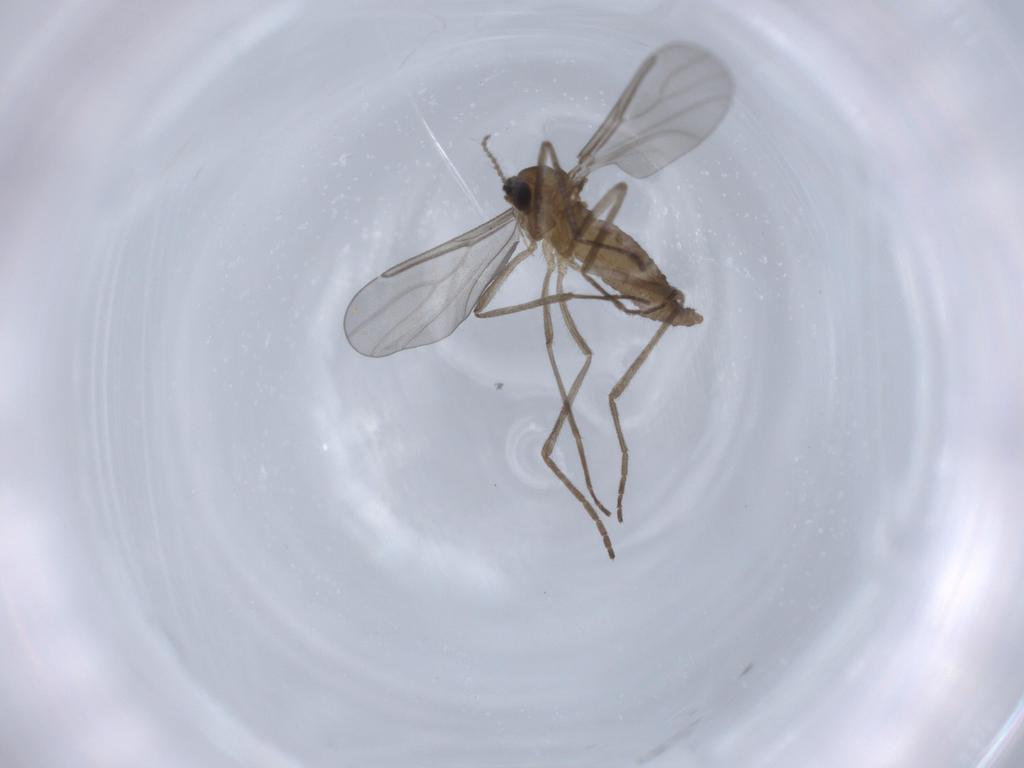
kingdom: Animalia
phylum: Arthropoda
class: Insecta
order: Diptera
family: Cecidomyiidae
